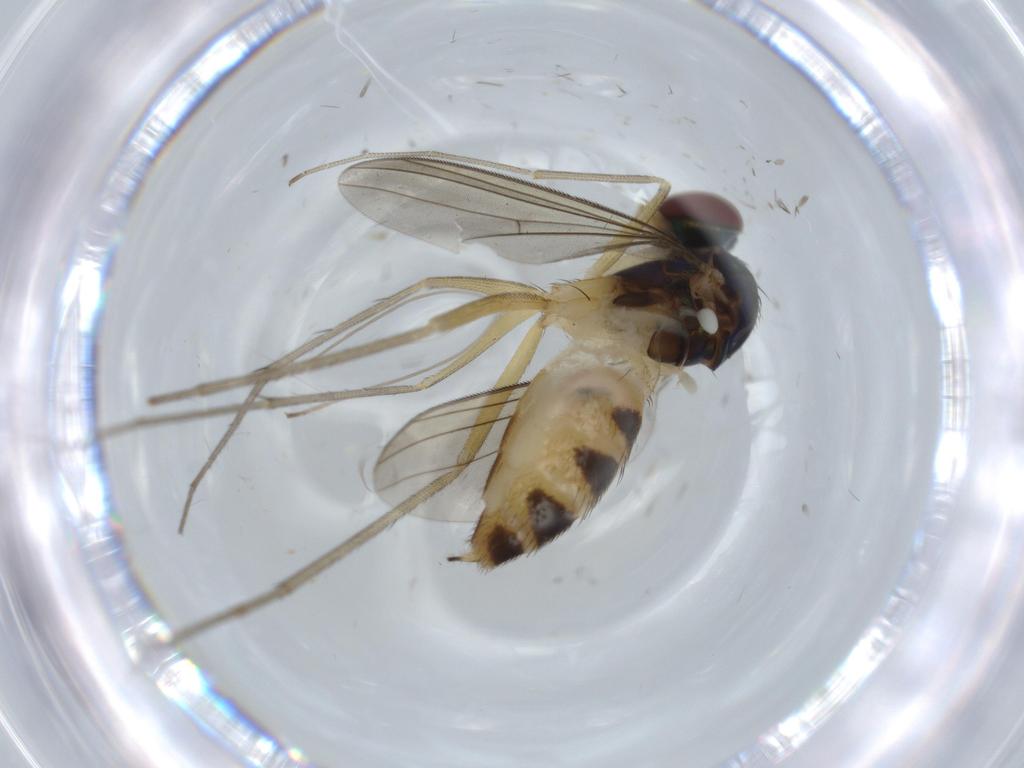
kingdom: Animalia
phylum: Arthropoda
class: Insecta
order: Diptera
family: Dolichopodidae
